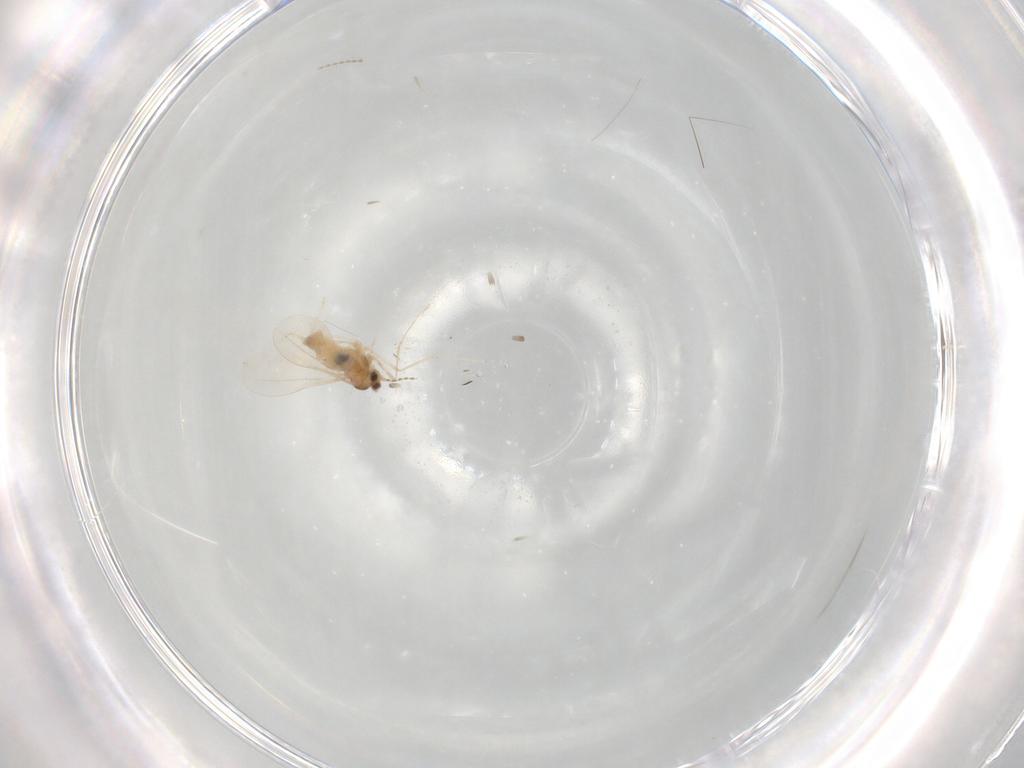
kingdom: Animalia
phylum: Arthropoda
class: Insecta
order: Diptera
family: Cecidomyiidae
